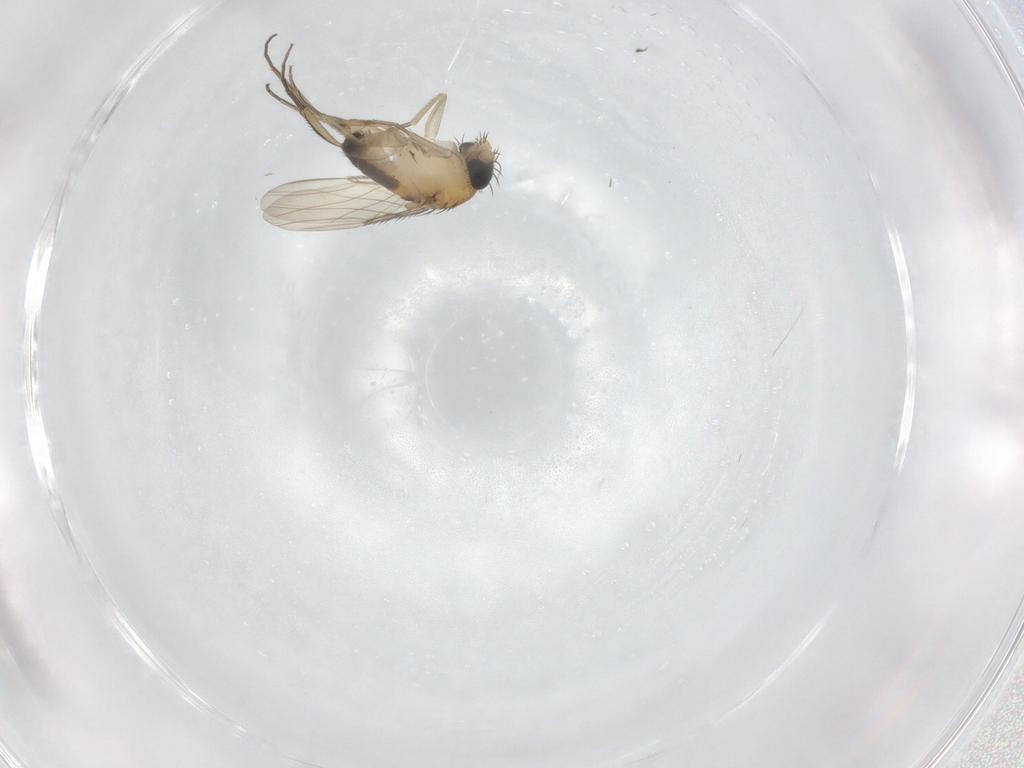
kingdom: Animalia
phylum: Arthropoda
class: Insecta
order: Diptera
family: Phoridae
